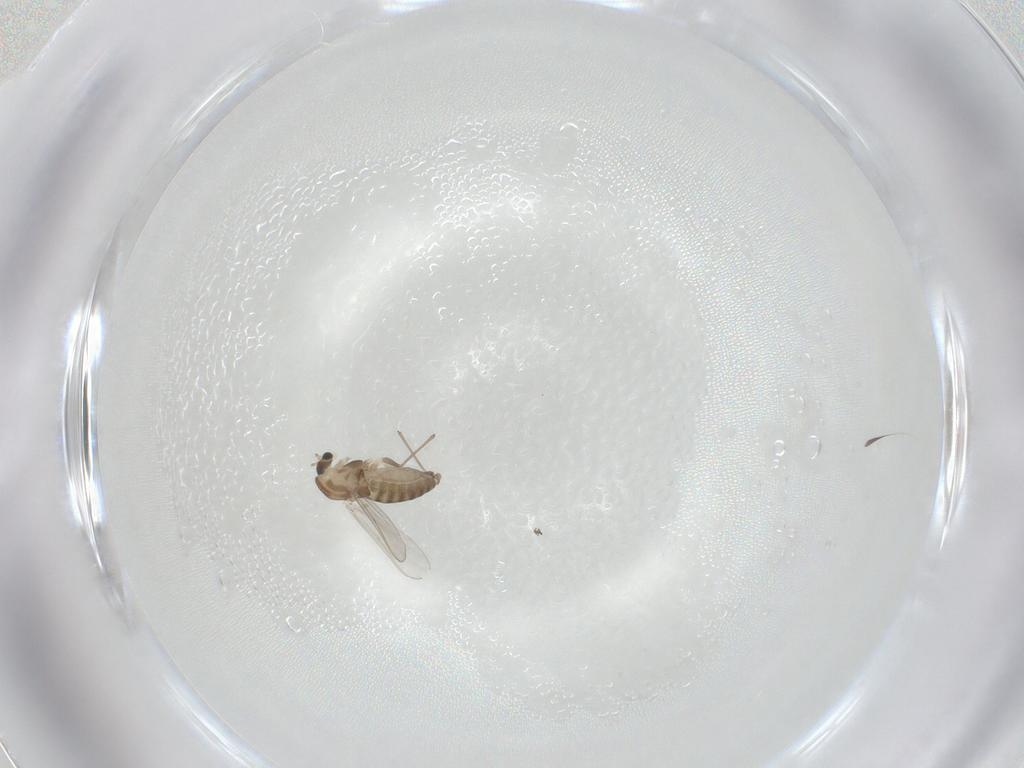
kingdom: Animalia
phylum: Arthropoda
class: Insecta
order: Diptera
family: Chironomidae
